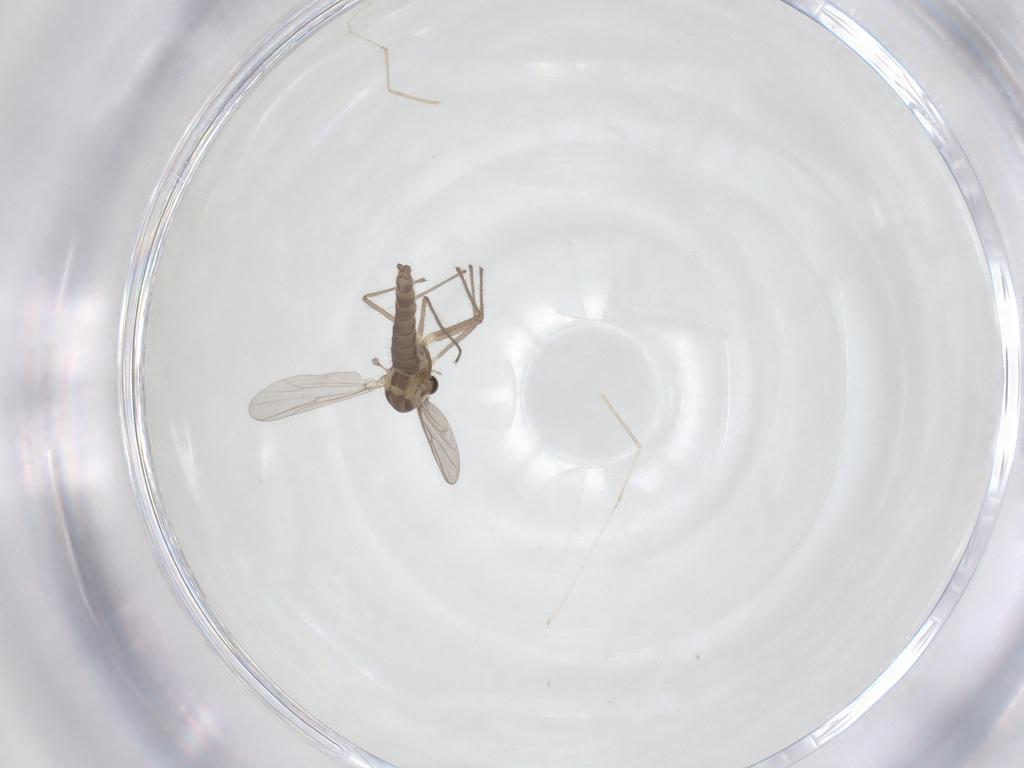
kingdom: Animalia
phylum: Arthropoda
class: Insecta
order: Diptera
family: Chironomidae
